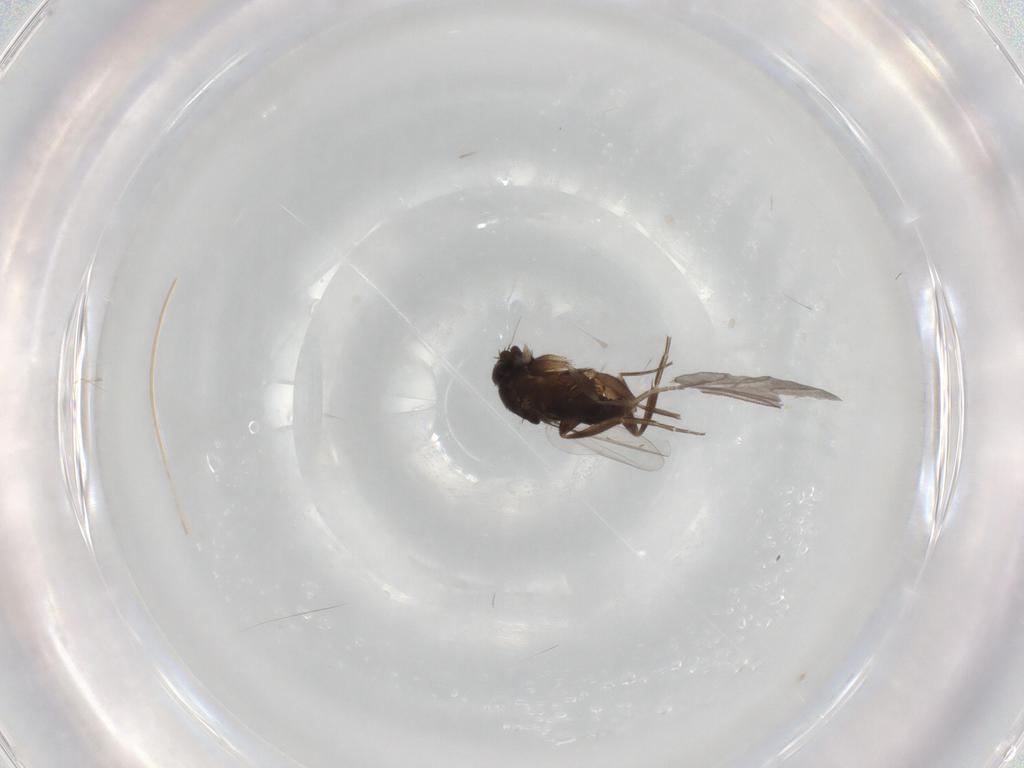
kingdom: Animalia
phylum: Arthropoda
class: Insecta
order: Diptera
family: Phoridae
